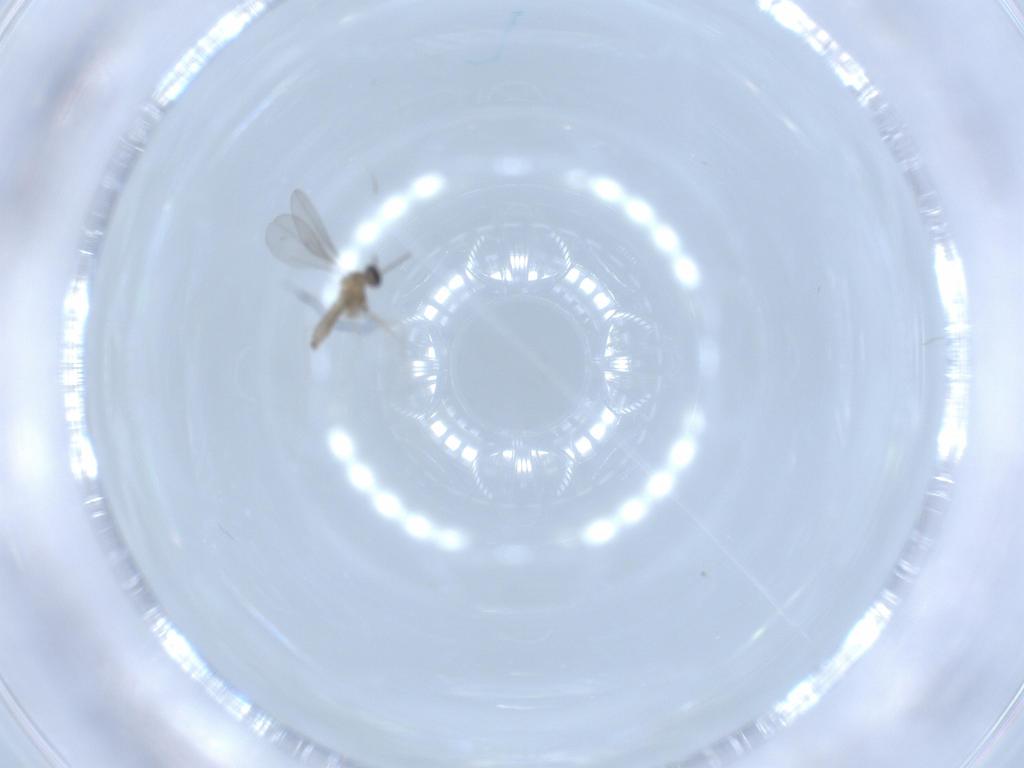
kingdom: Animalia
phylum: Arthropoda
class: Insecta
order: Diptera
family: Cecidomyiidae
